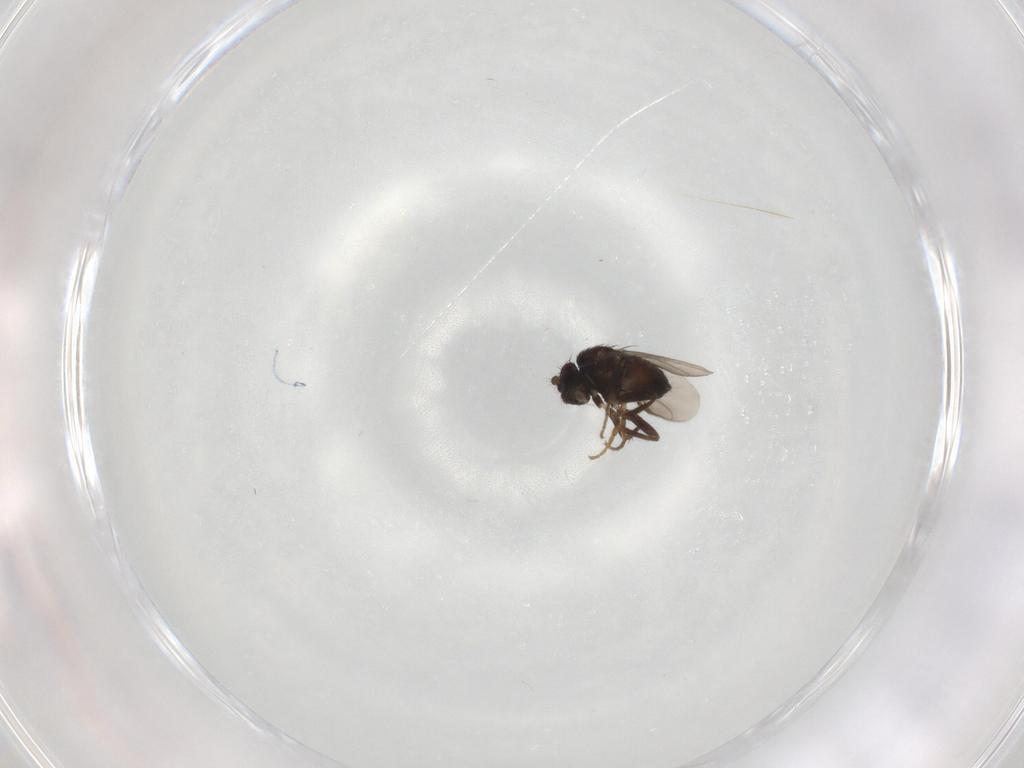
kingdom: Animalia
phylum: Arthropoda
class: Insecta
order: Diptera
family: Sphaeroceridae
